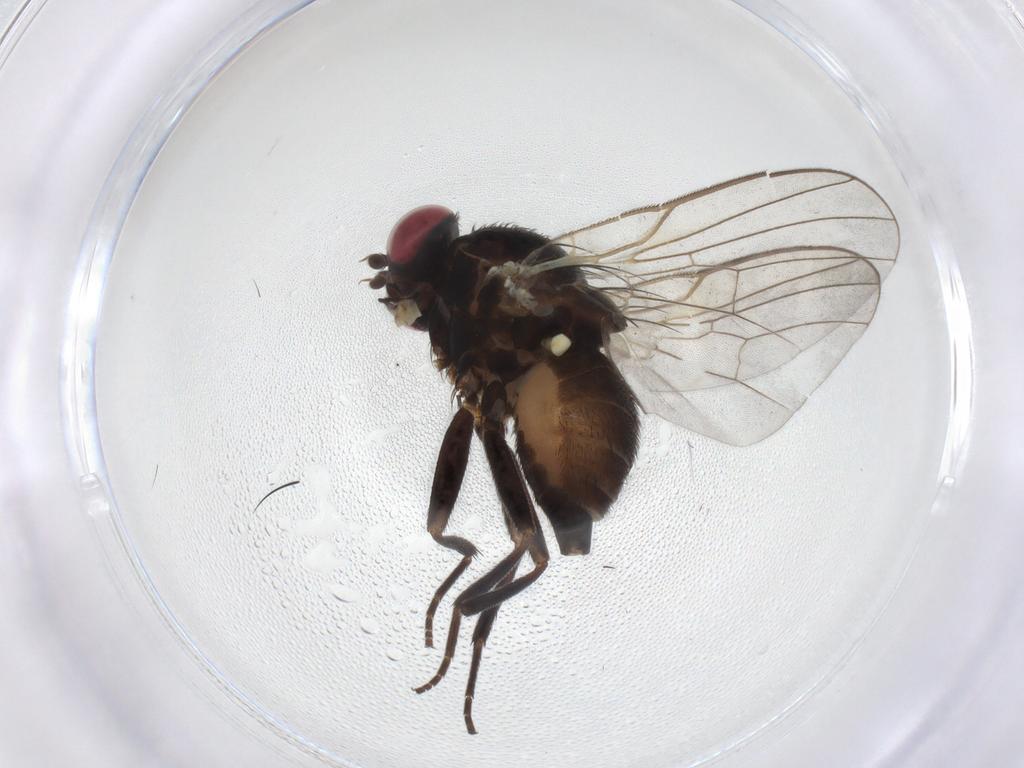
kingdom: Animalia
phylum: Arthropoda
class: Insecta
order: Diptera
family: Agromyzidae
